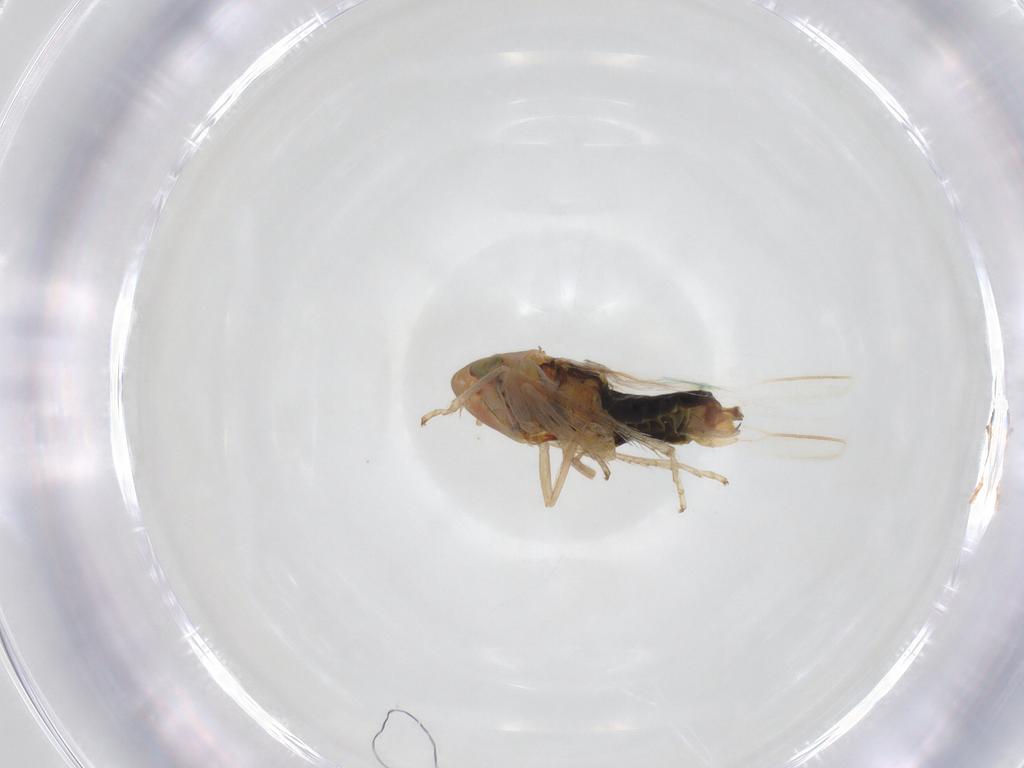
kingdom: Animalia
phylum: Arthropoda
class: Insecta
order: Hemiptera
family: Cicadellidae
